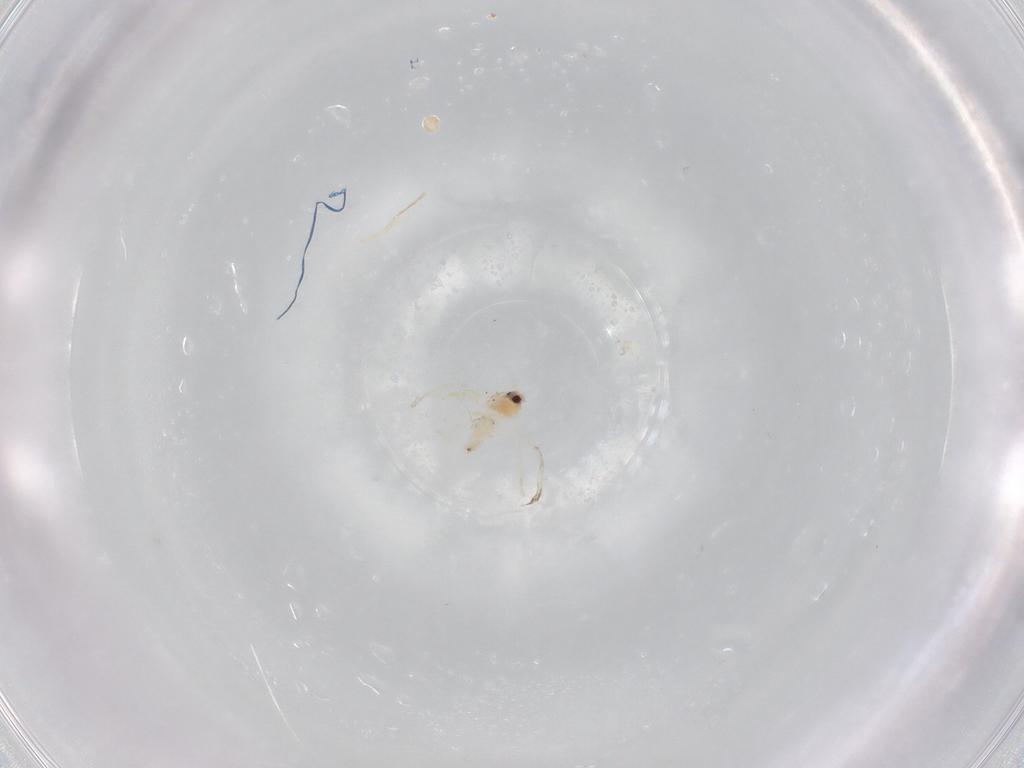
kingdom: Animalia
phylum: Arthropoda
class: Insecta
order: Hemiptera
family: Aleyrodidae
